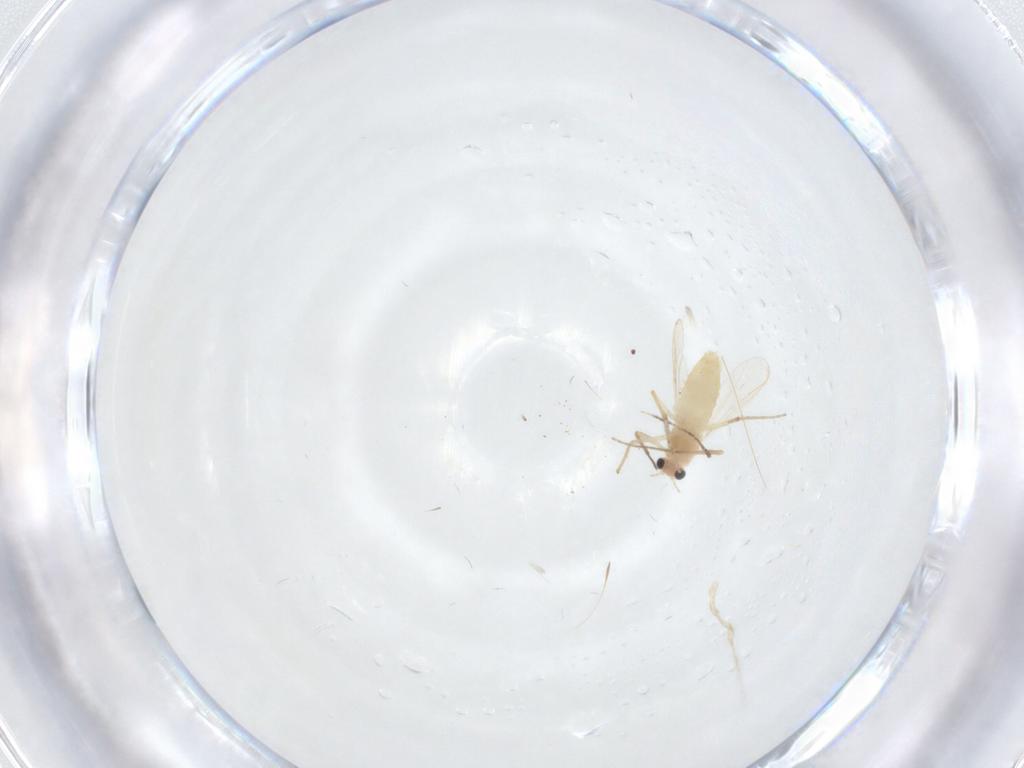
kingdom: Animalia
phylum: Arthropoda
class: Insecta
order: Diptera
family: Chironomidae
